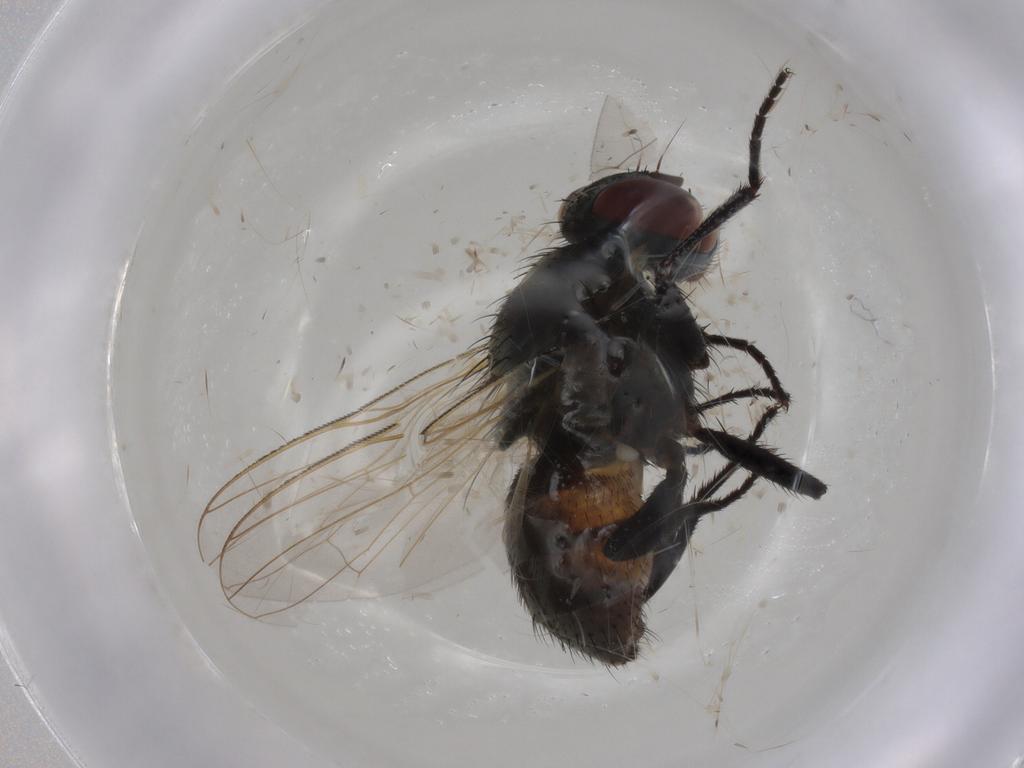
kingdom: Animalia
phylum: Arthropoda
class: Insecta
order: Diptera
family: Muscidae
